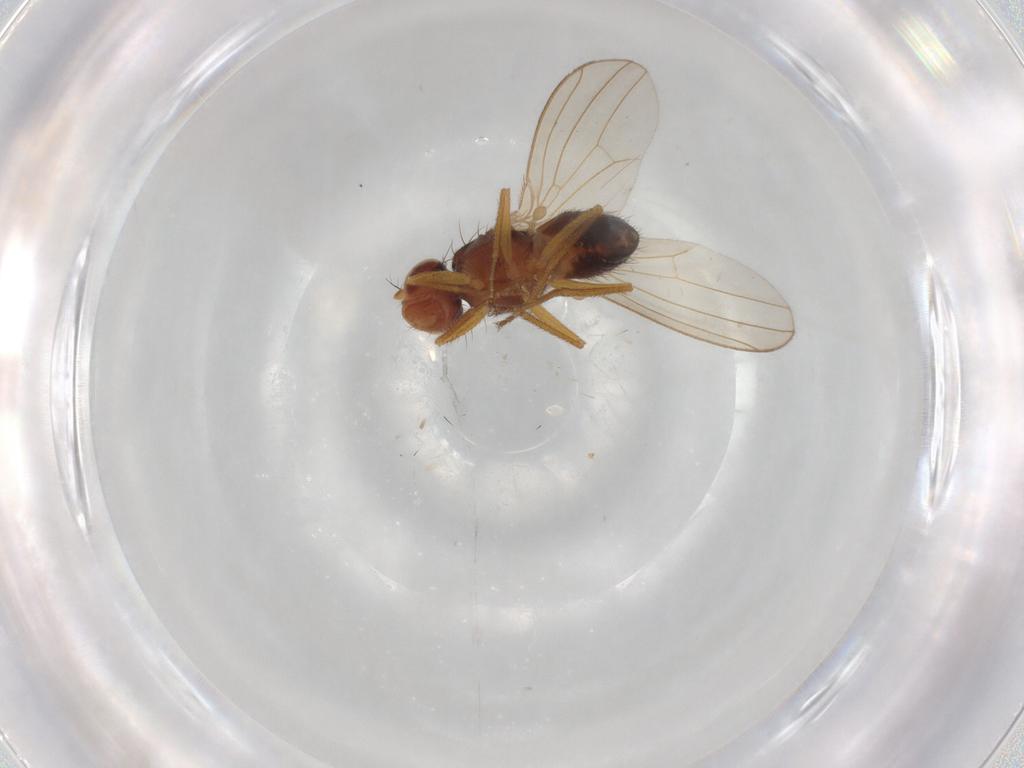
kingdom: Animalia
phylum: Arthropoda
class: Insecta
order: Diptera
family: Drosophilidae
